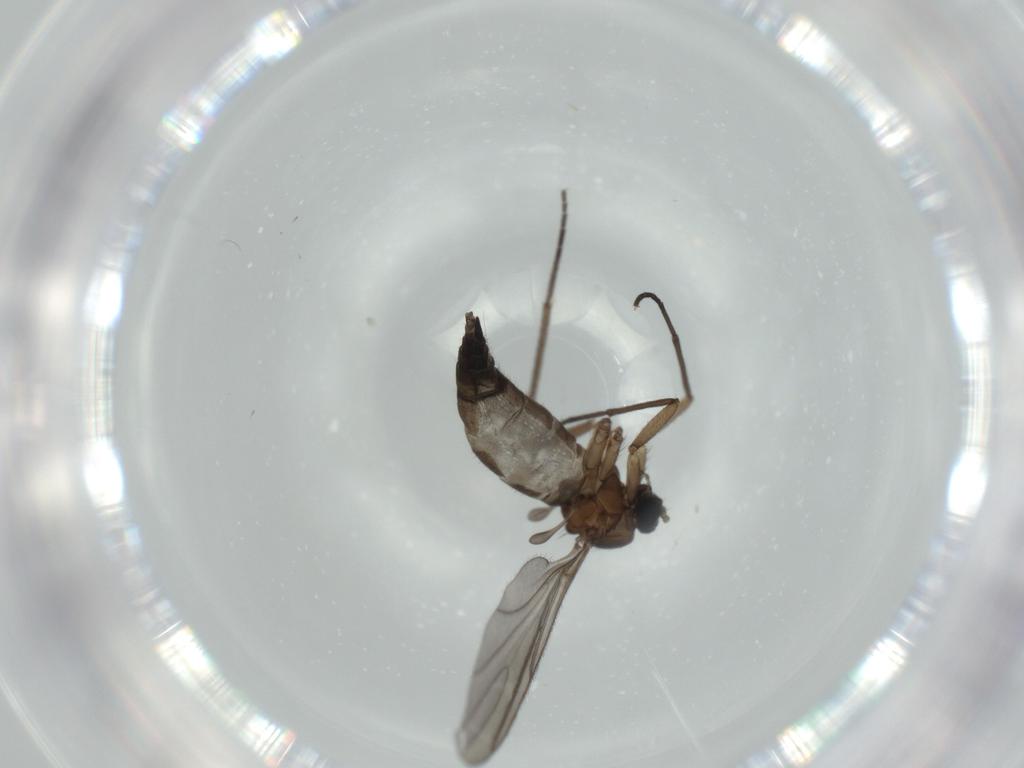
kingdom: Animalia
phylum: Arthropoda
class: Insecta
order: Diptera
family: Sciaridae
